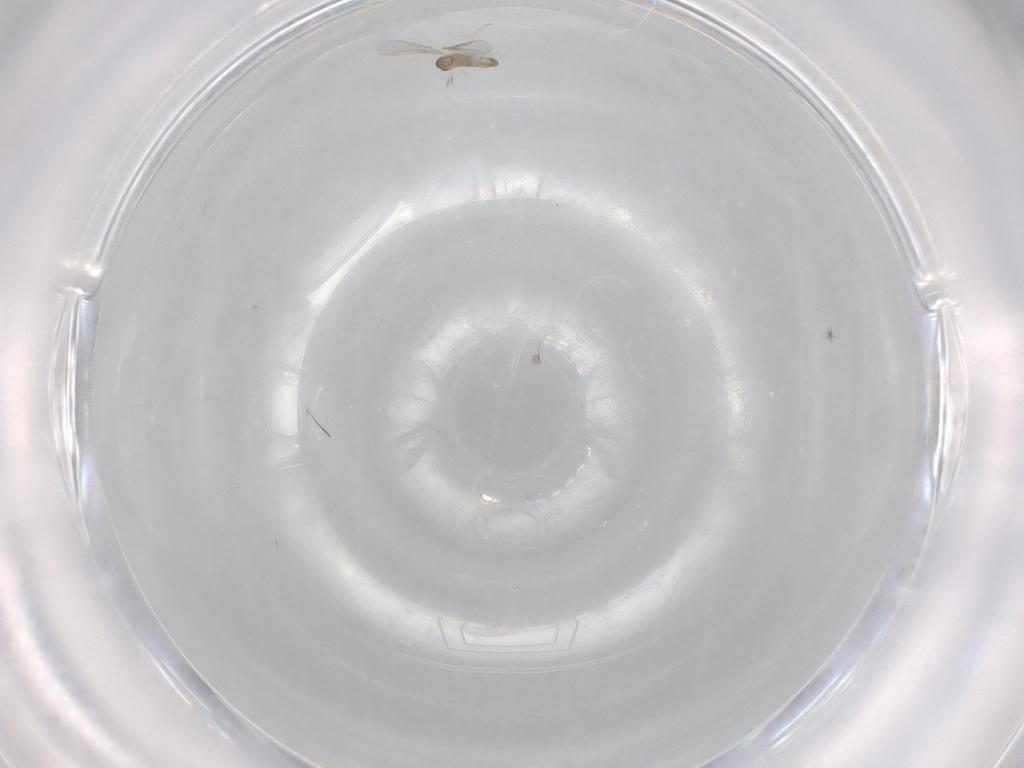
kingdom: Animalia
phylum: Arthropoda
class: Insecta
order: Diptera
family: Cecidomyiidae
